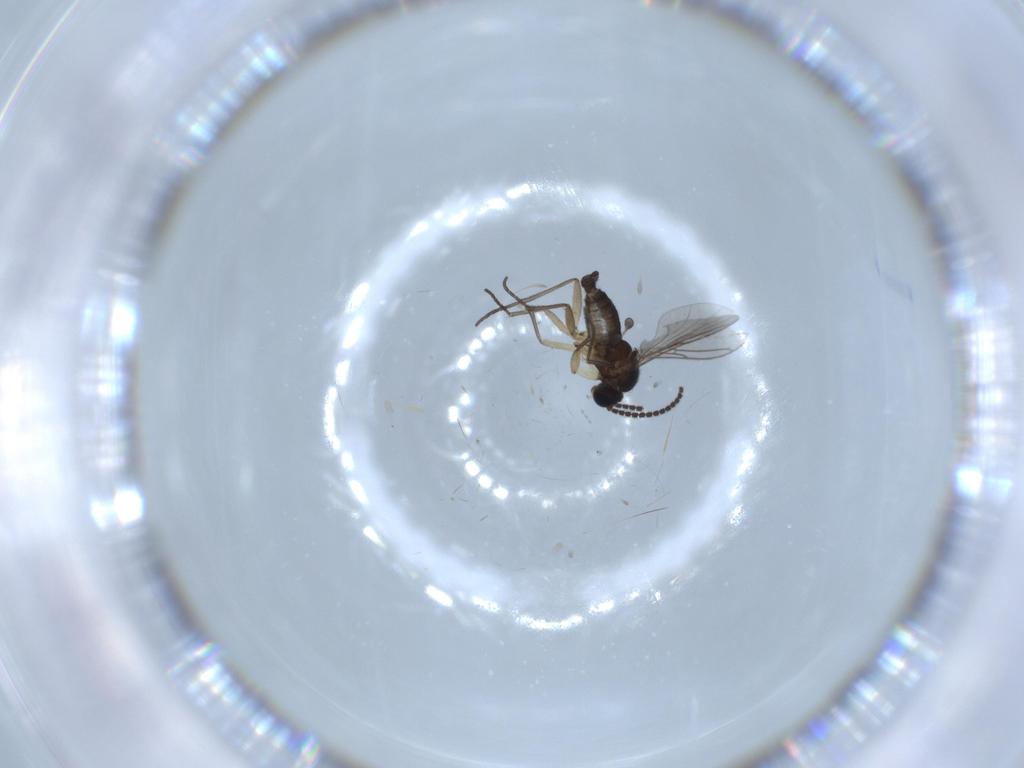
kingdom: Animalia
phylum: Arthropoda
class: Insecta
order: Diptera
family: Sciaridae
